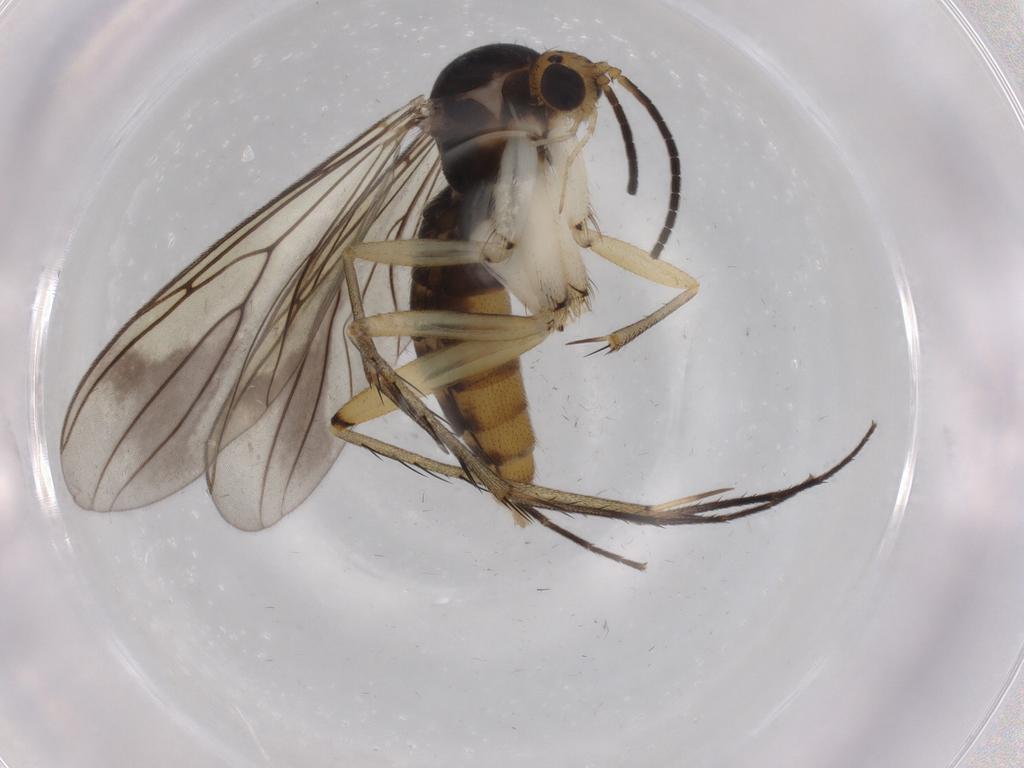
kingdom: Animalia
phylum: Arthropoda
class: Insecta
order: Diptera
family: Mycetophilidae
